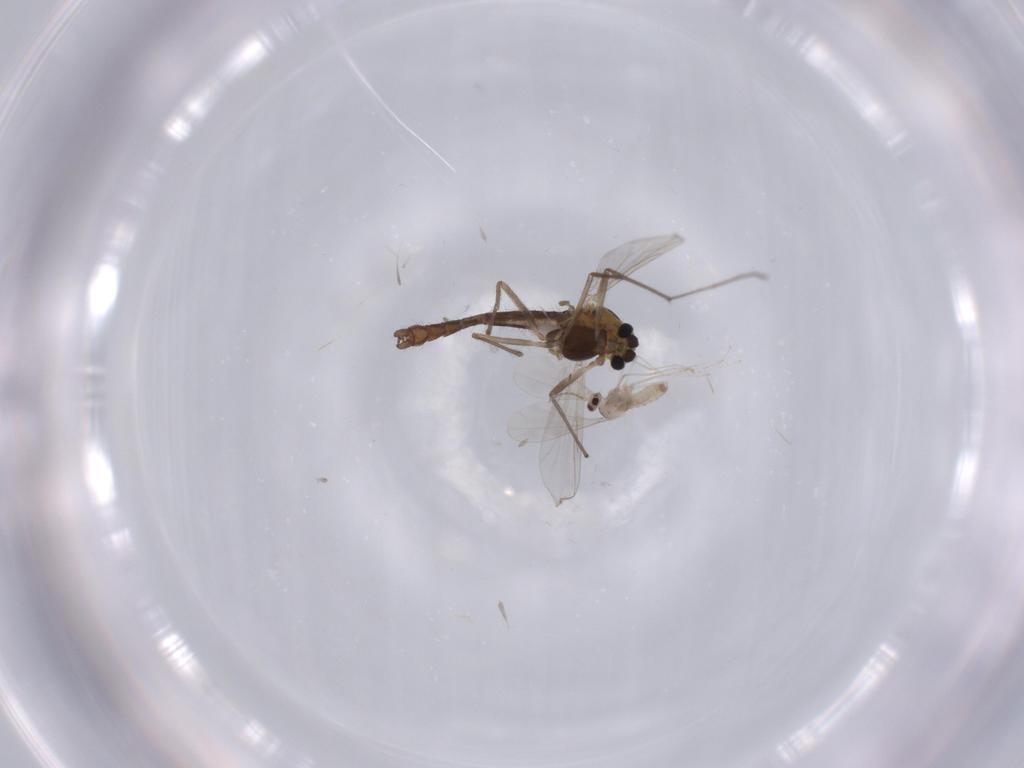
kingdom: Animalia
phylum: Arthropoda
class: Insecta
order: Diptera
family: Chironomidae
